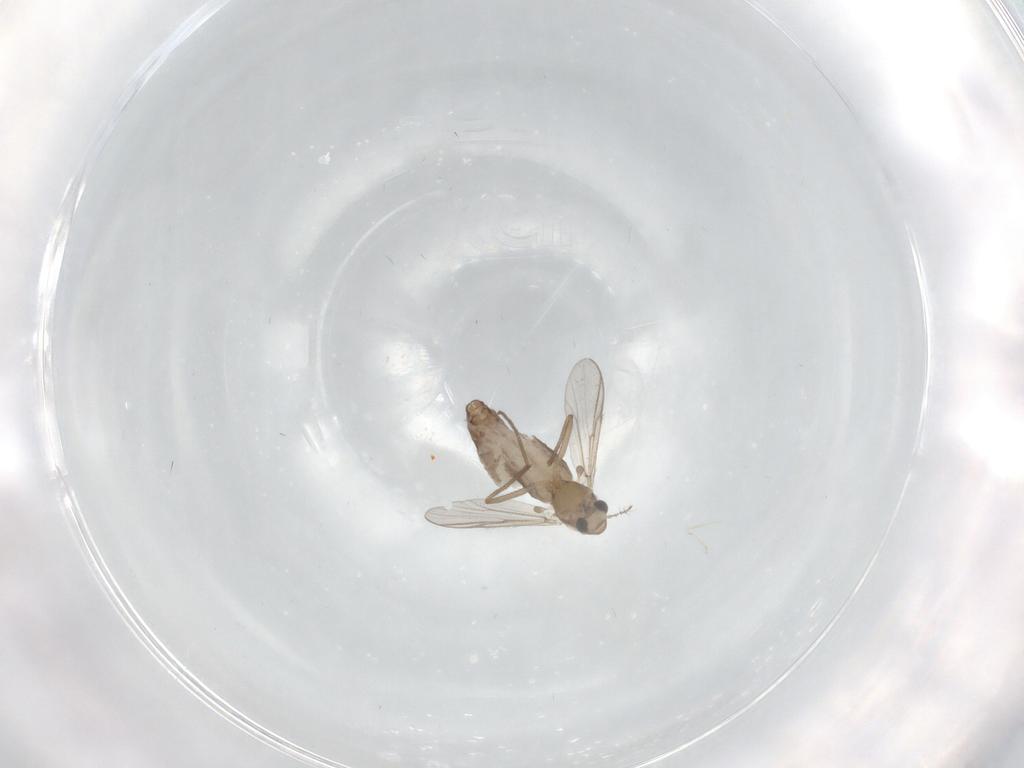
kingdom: Animalia
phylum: Arthropoda
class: Insecta
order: Diptera
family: Chironomidae
